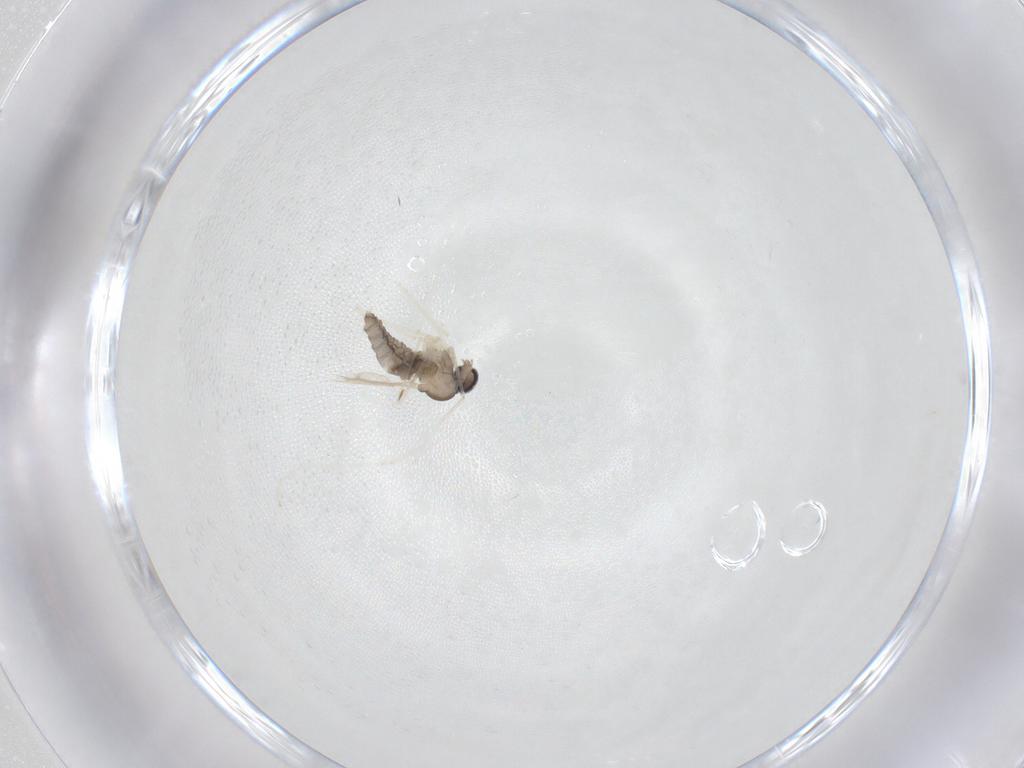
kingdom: Animalia
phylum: Arthropoda
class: Insecta
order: Diptera
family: Cecidomyiidae
